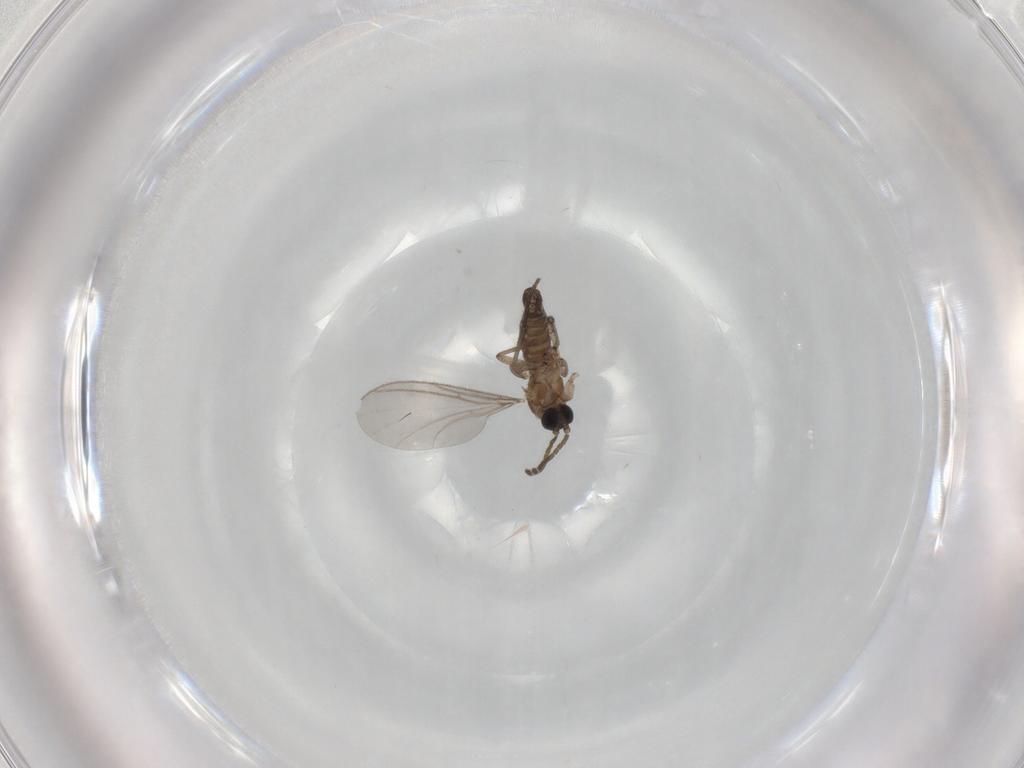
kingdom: Animalia
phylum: Arthropoda
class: Insecta
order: Diptera
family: Sciaridae
